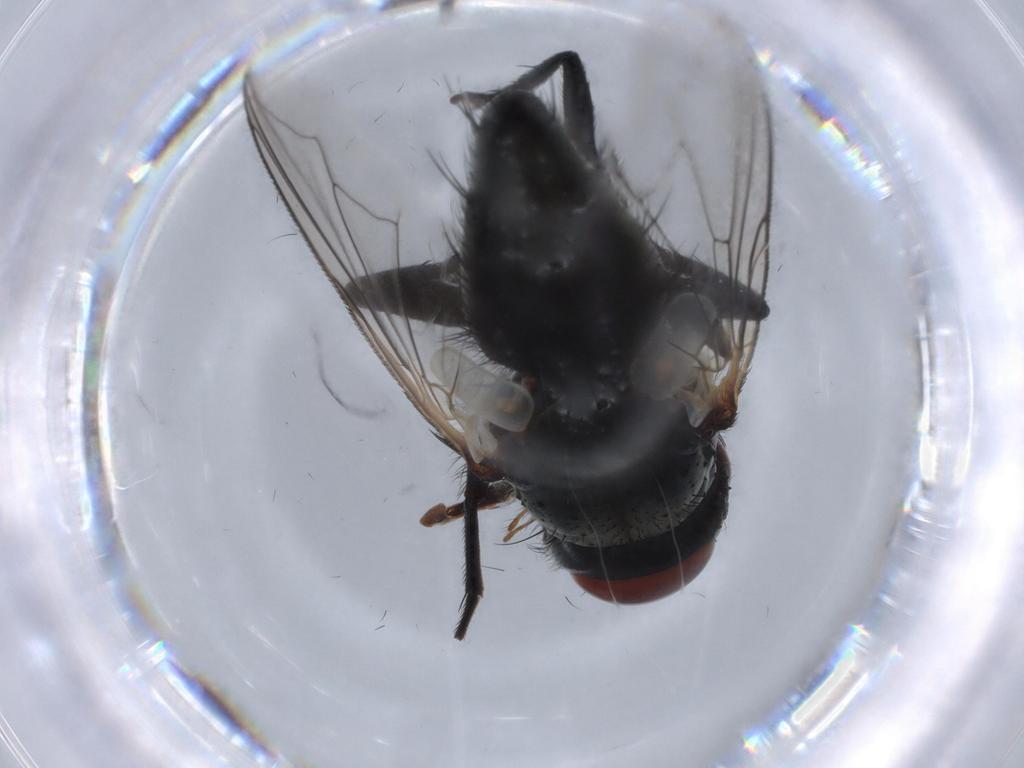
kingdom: Animalia
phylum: Arthropoda
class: Insecta
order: Diptera
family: Sarcophagidae
